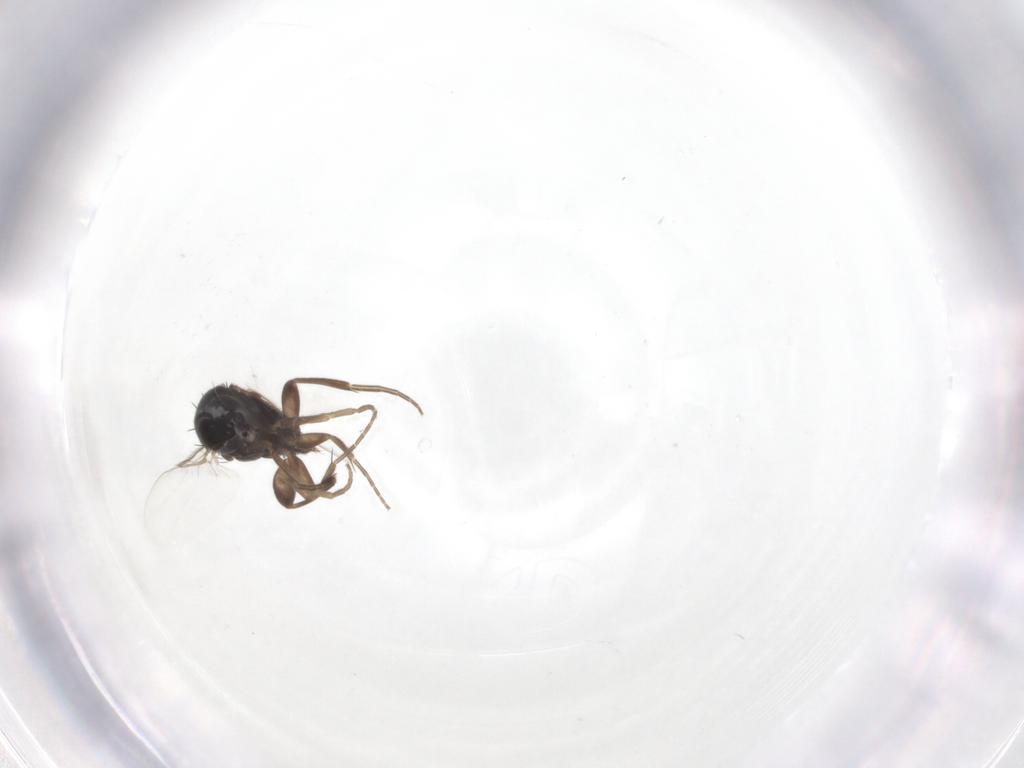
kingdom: Animalia
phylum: Arthropoda
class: Insecta
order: Diptera
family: Phoridae
